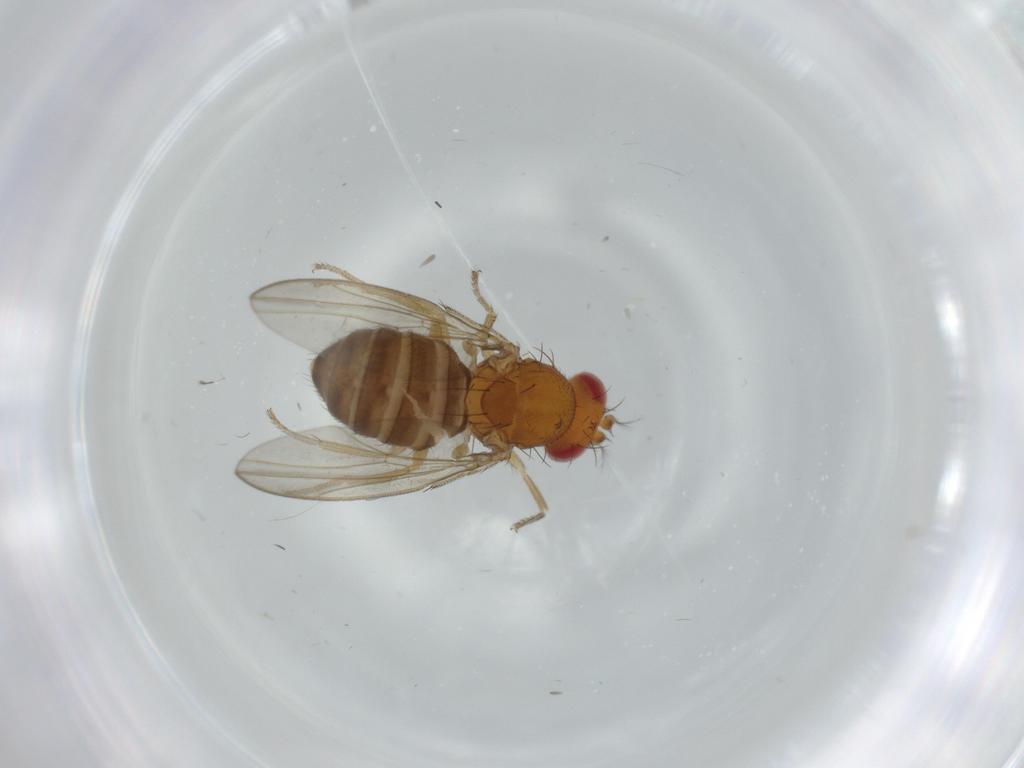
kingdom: Animalia
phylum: Arthropoda
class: Insecta
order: Diptera
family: Drosophilidae
